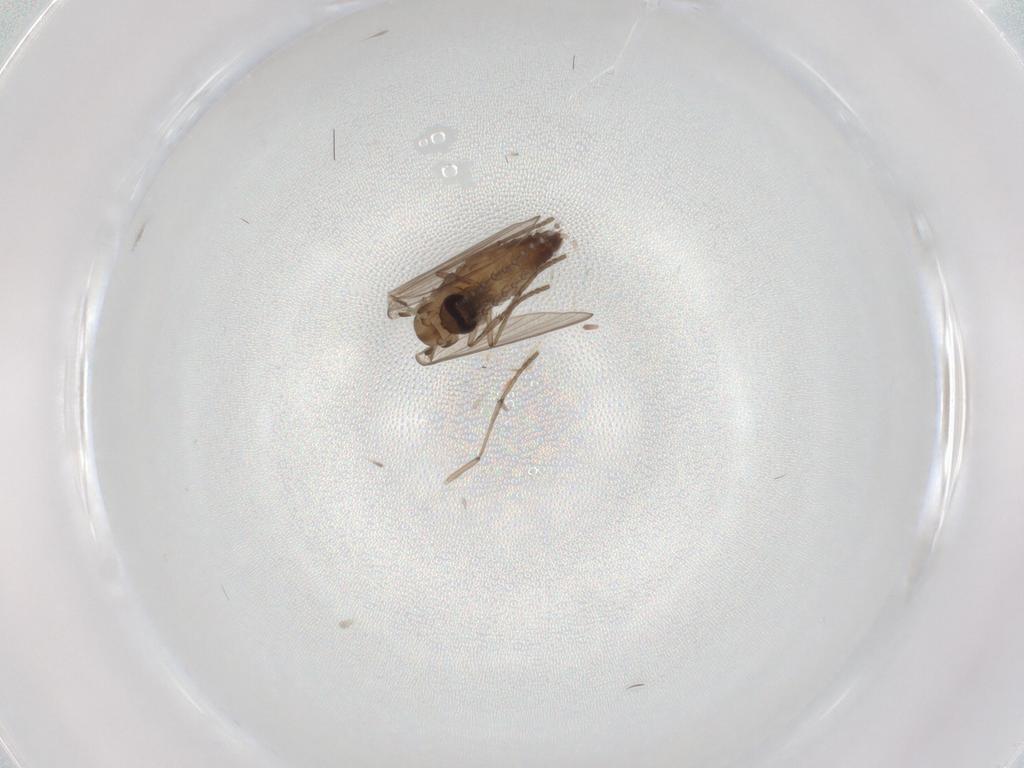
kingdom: Animalia
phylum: Arthropoda
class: Insecta
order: Diptera
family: Psychodidae
